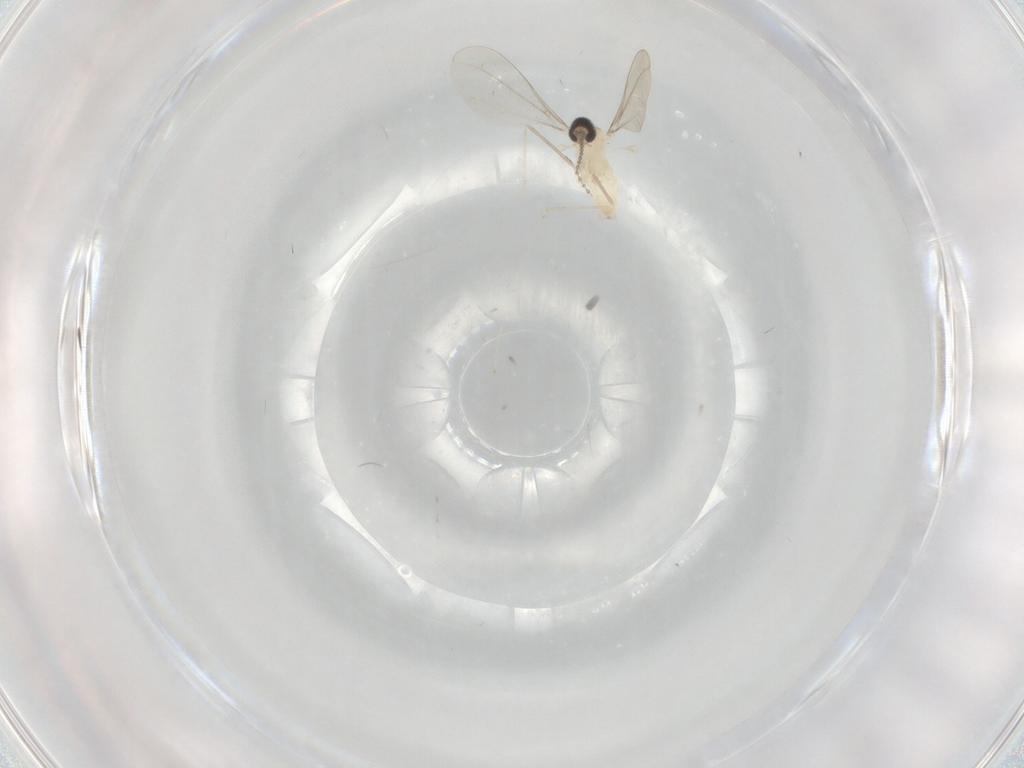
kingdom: Animalia
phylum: Arthropoda
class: Insecta
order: Diptera
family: Cecidomyiidae
